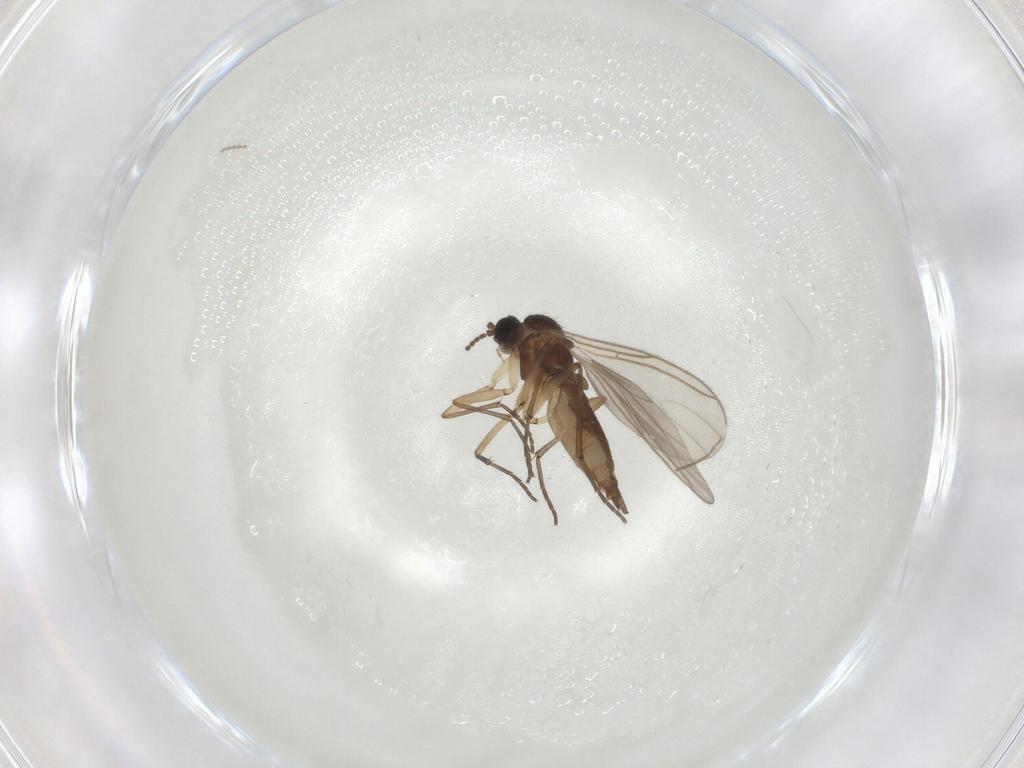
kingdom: Animalia
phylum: Arthropoda
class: Insecta
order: Diptera
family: Sciaridae
